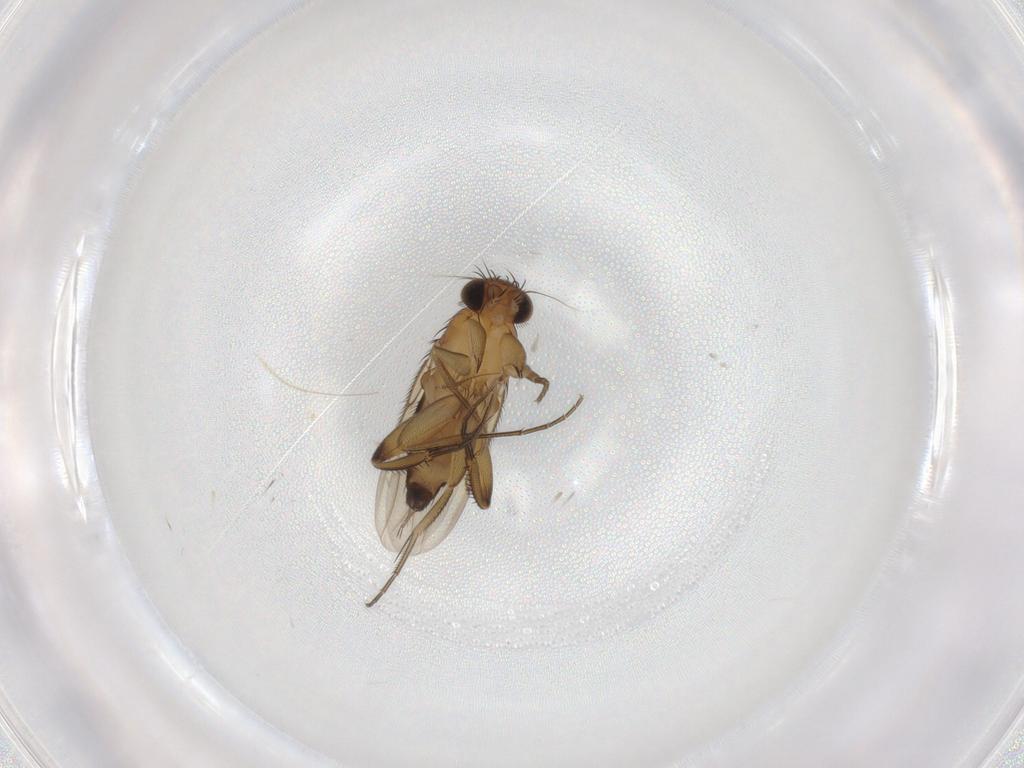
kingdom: Animalia
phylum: Arthropoda
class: Insecta
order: Diptera
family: Phoridae
